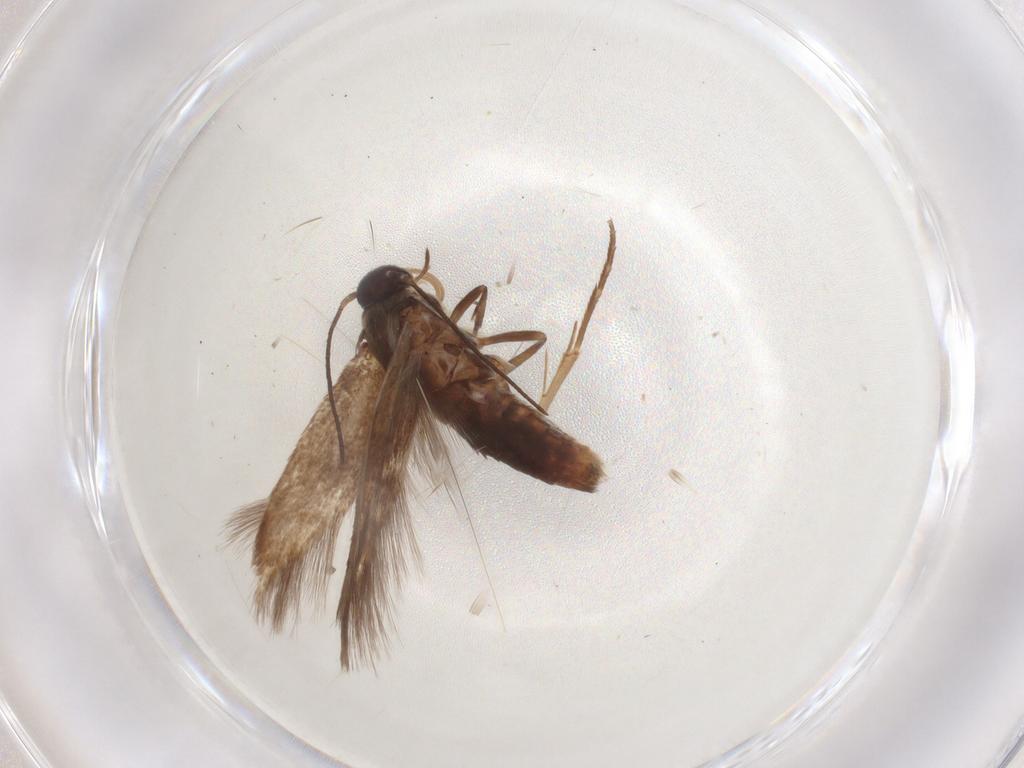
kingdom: Animalia
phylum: Arthropoda
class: Insecta
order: Lepidoptera
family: Scythrididae
